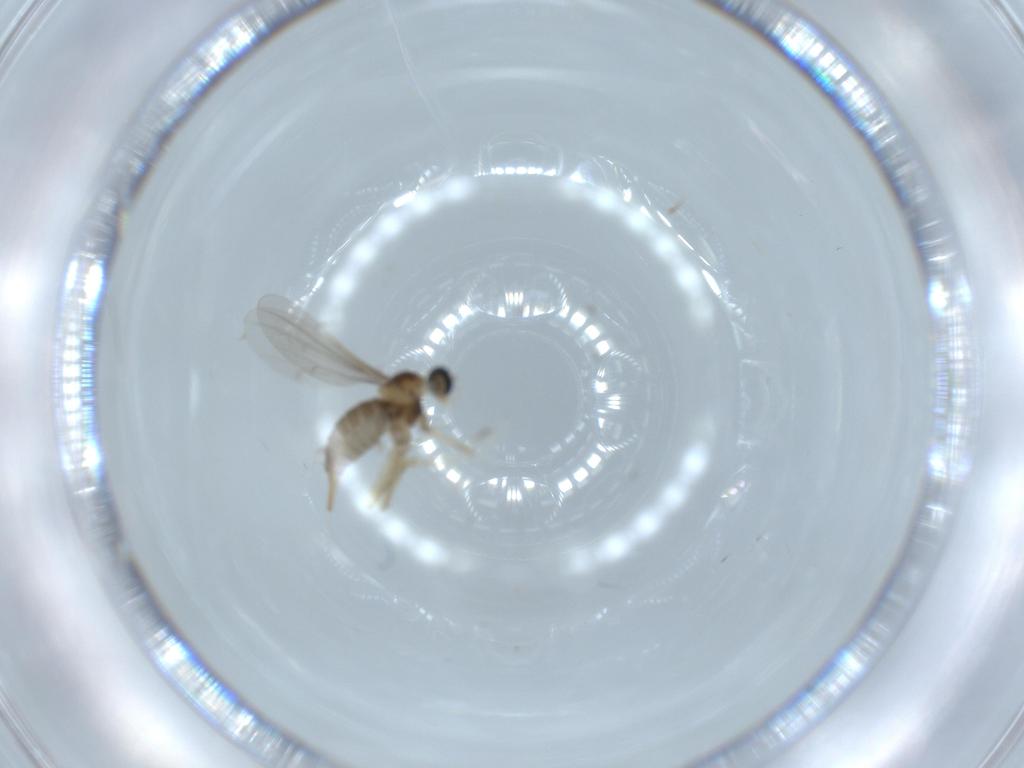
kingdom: Animalia
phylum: Arthropoda
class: Insecta
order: Diptera
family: Cecidomyiidae
